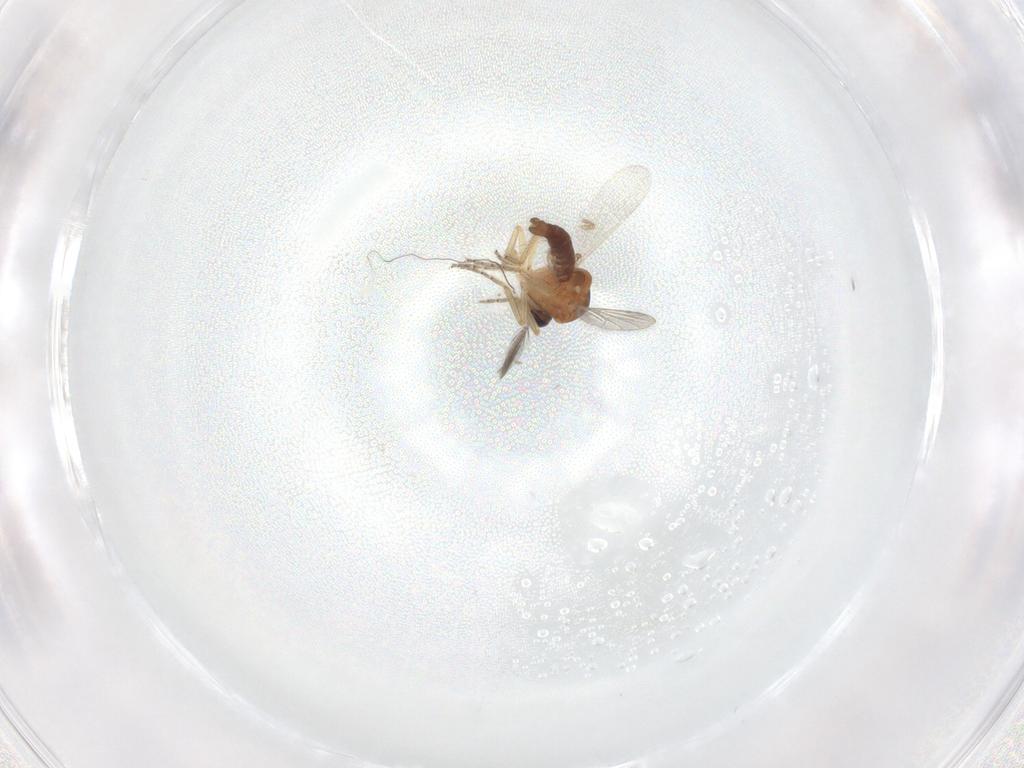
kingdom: Animalia
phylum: Arthropoda
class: Insecta
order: Diptera
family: Ceratopogonidae
